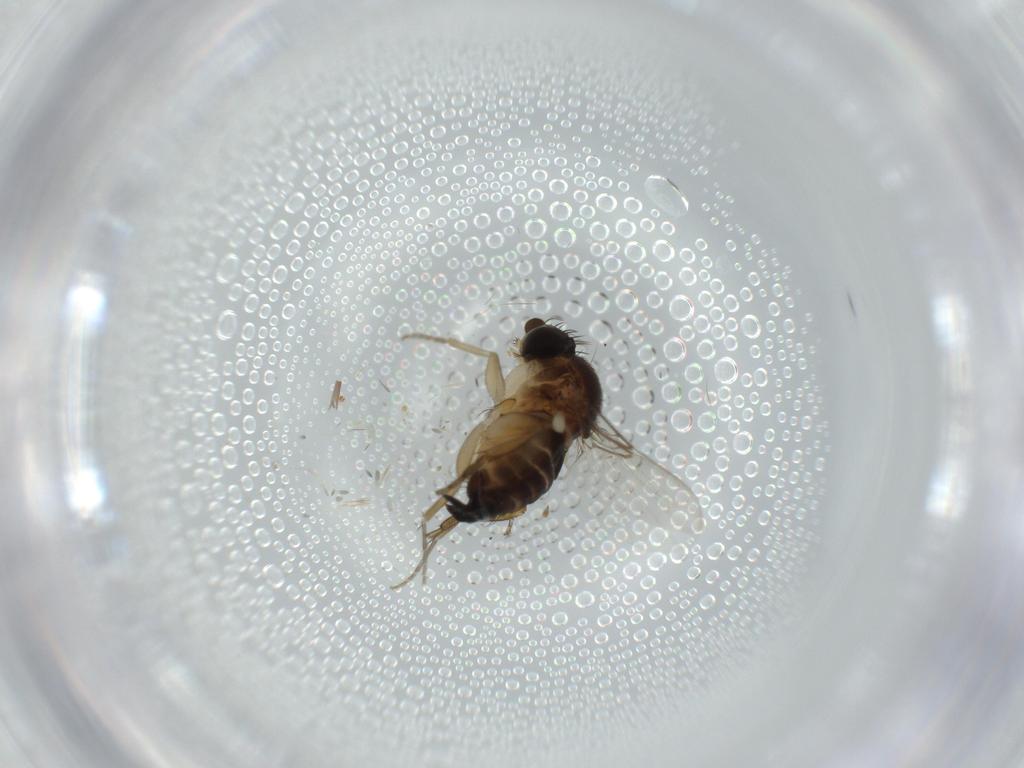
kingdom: Animalia
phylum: Arthropoda
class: Insecta
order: Diptera
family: Phoridae
